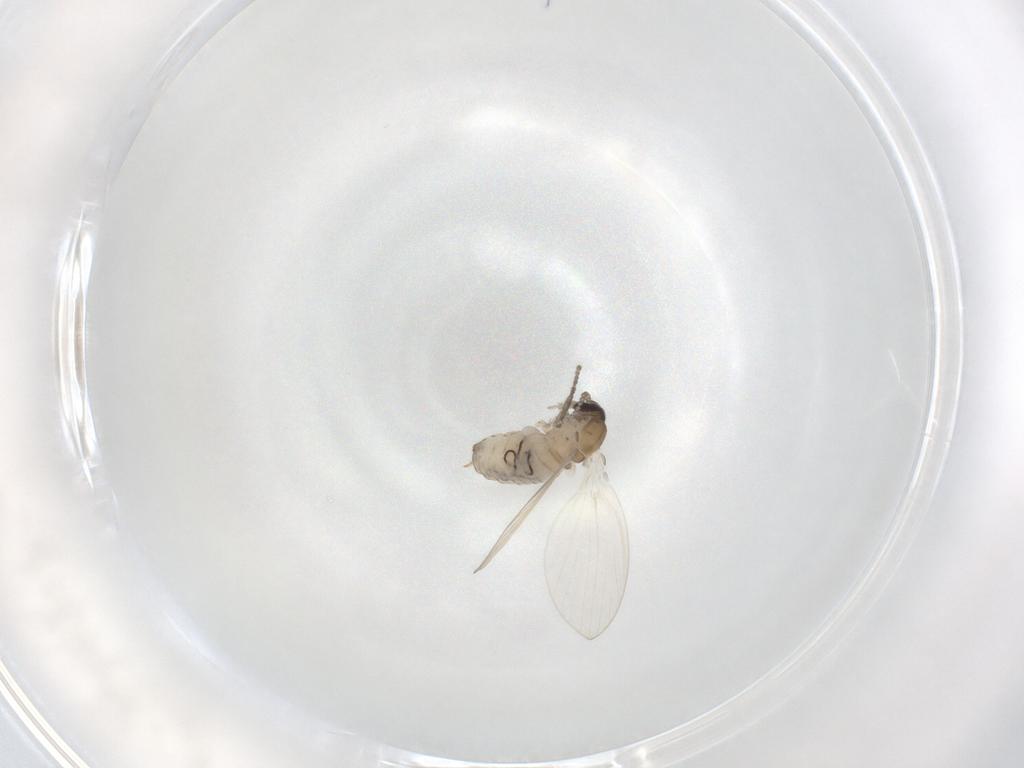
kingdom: Animalia
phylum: Arthropoda
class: Insecta
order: Diptera
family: Psychodidae
